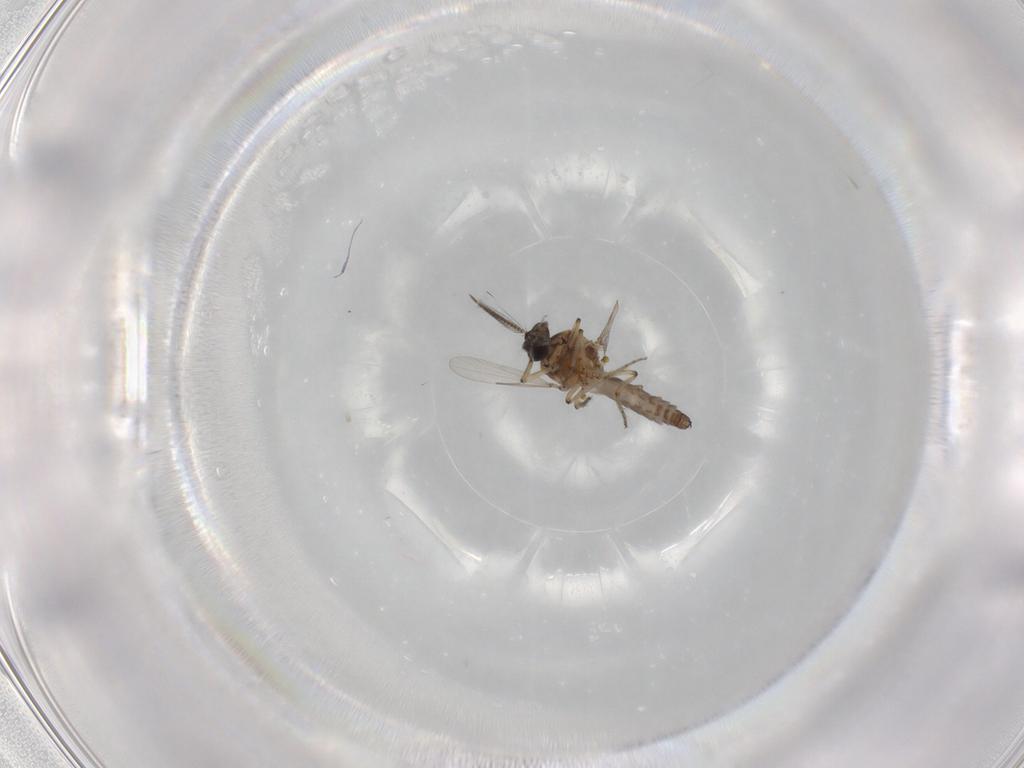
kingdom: Animalia
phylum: Arthropoda
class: Insecta
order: Diptera
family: Ceratopogonidae
